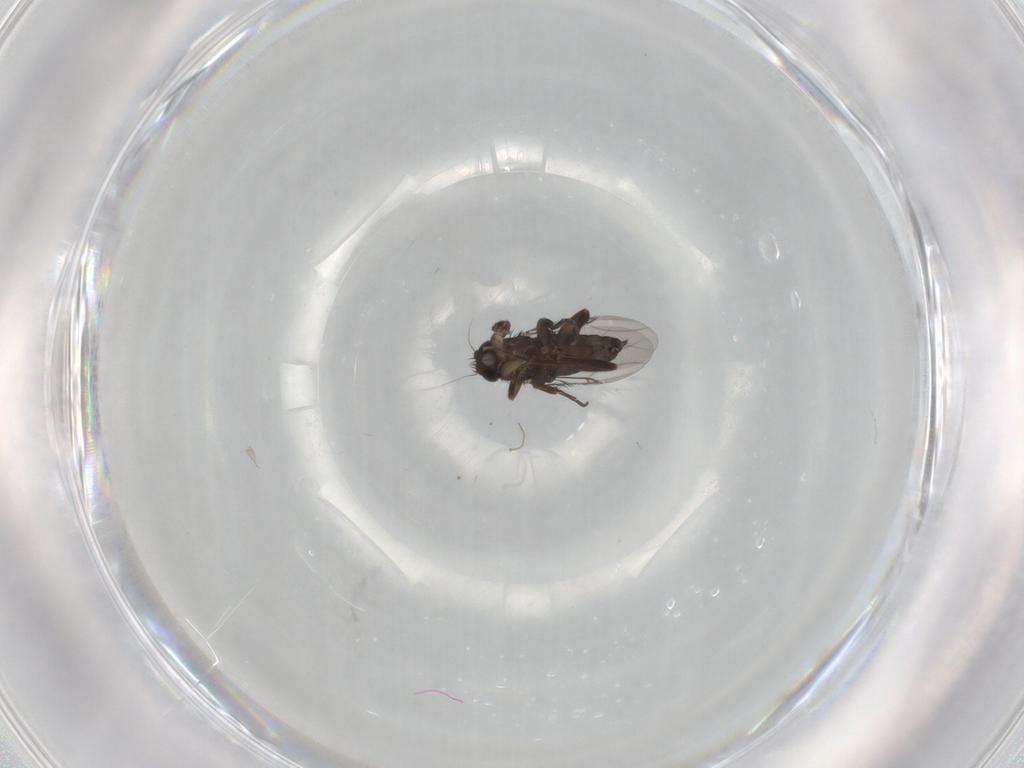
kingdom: Animalia
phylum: Arthropoda
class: Insecta
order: Diptera
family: Phoridae
